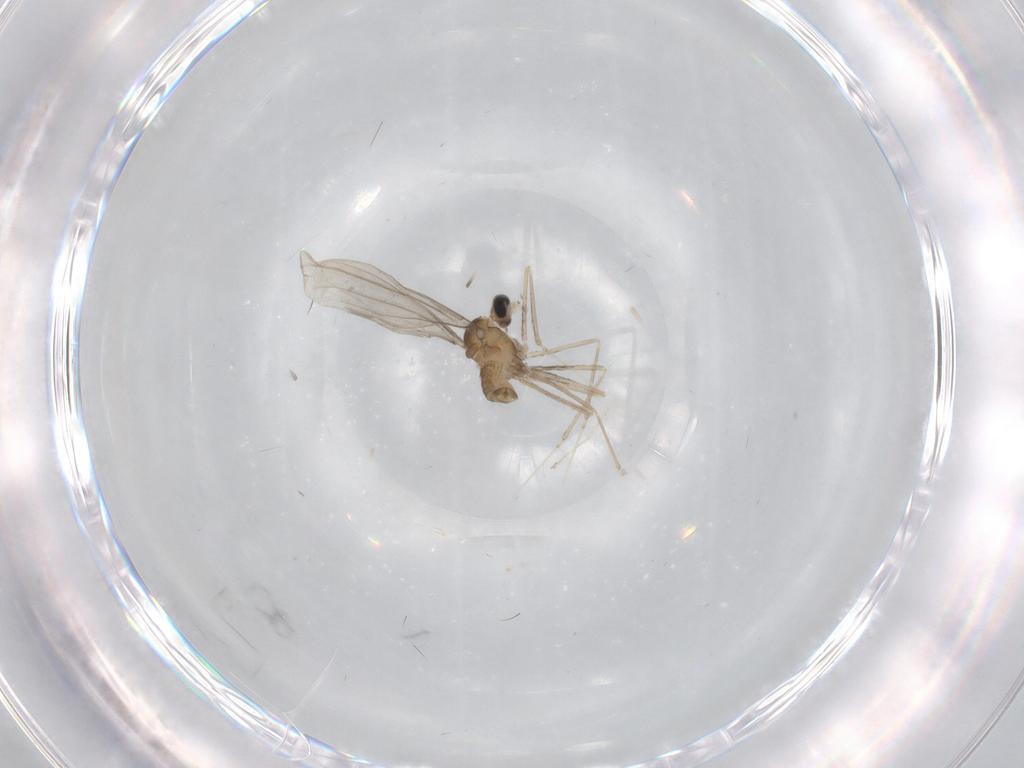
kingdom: Animalia
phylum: Arthropoda
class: Insecta
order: Diptera
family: Cecidomyiidae
